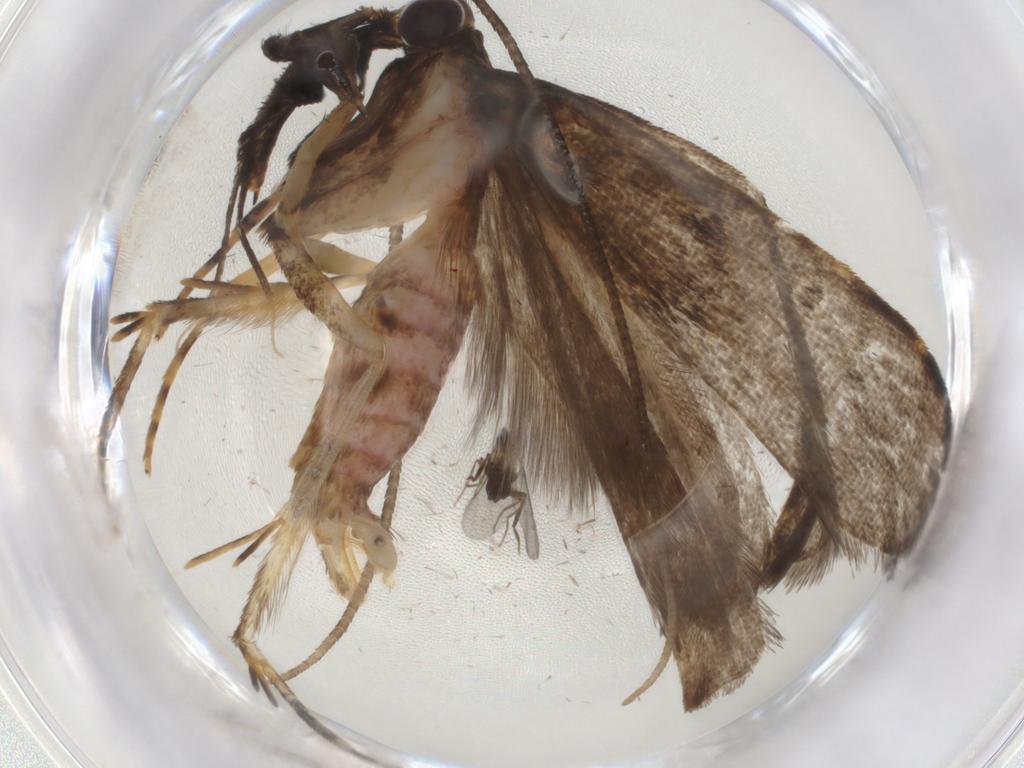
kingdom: Animalia
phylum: Arthropoda
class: Insecta
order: Lepidoptera
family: Cosmopterigidae
